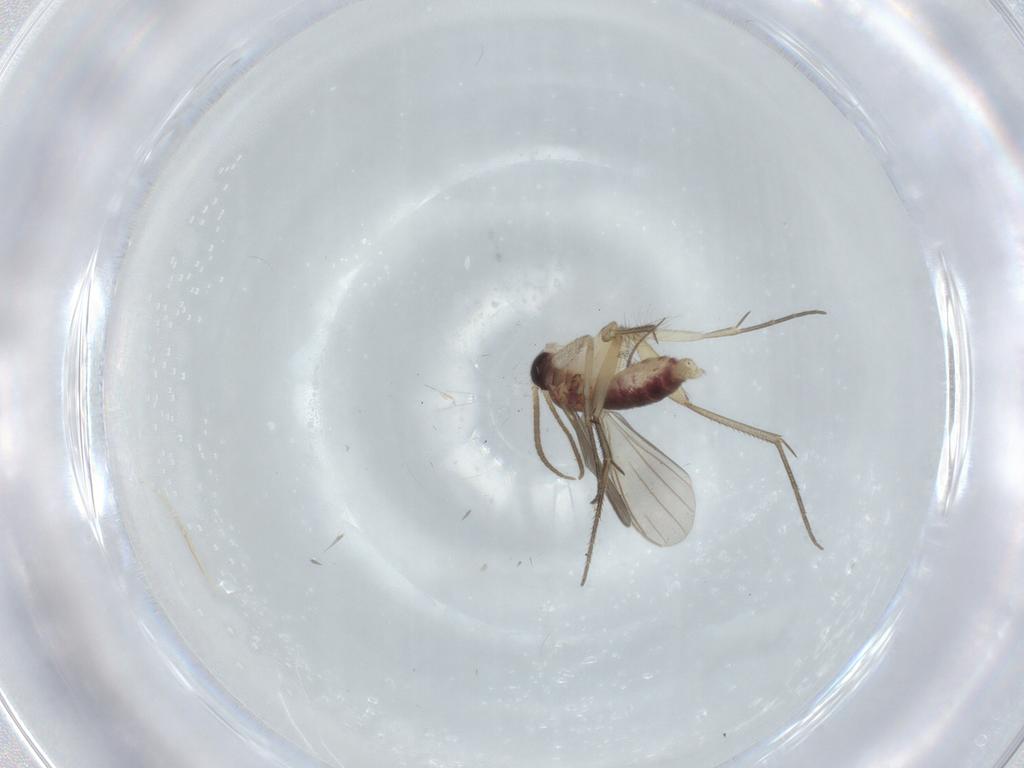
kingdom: Animalia
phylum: Arthropoda
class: Insecta
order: Diptera
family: Mycetophilidae
